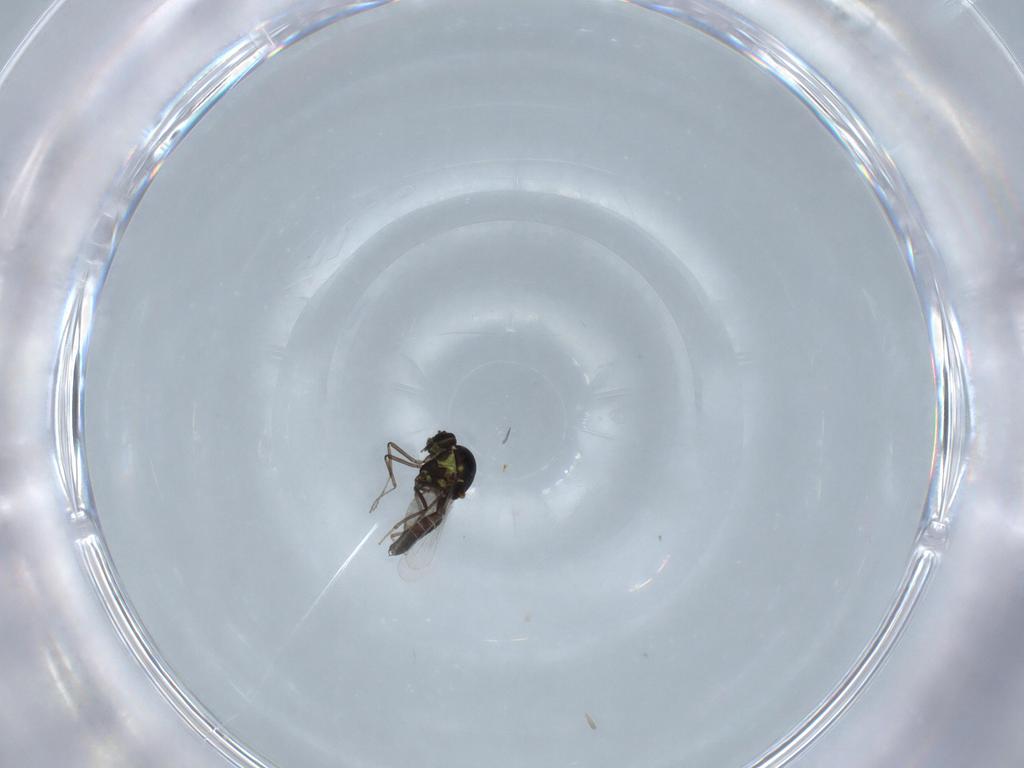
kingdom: Animalia
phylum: Arthropoda
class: Insecta
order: Diptera
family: Ceratopogonidae
